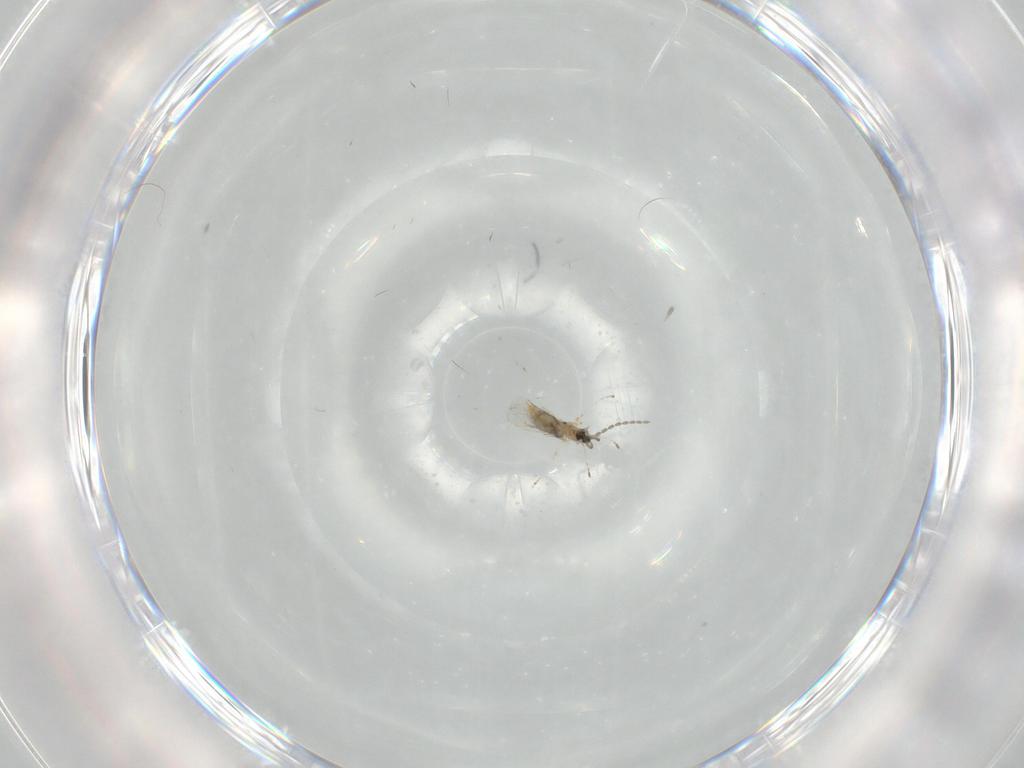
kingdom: Animalia
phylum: Arthropoda
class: Insecta
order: Diptera
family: Cecidomyiidae
